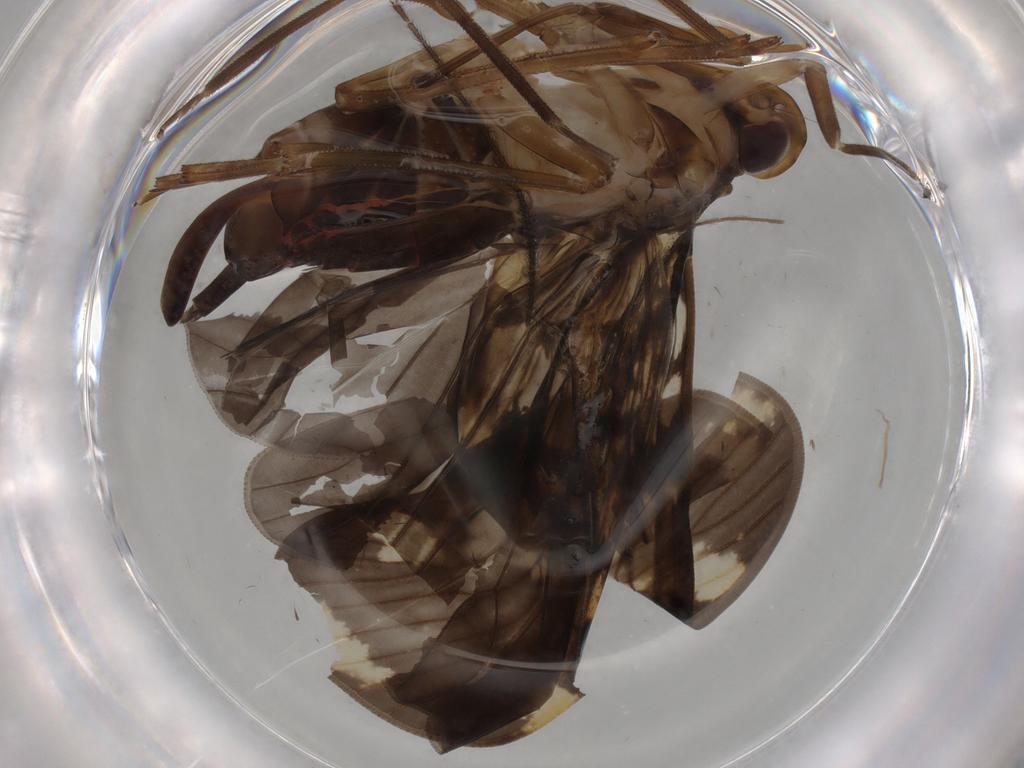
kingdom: Animalia
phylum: Arthropoda
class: Insecta
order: Hemiptera
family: Cixiidae
